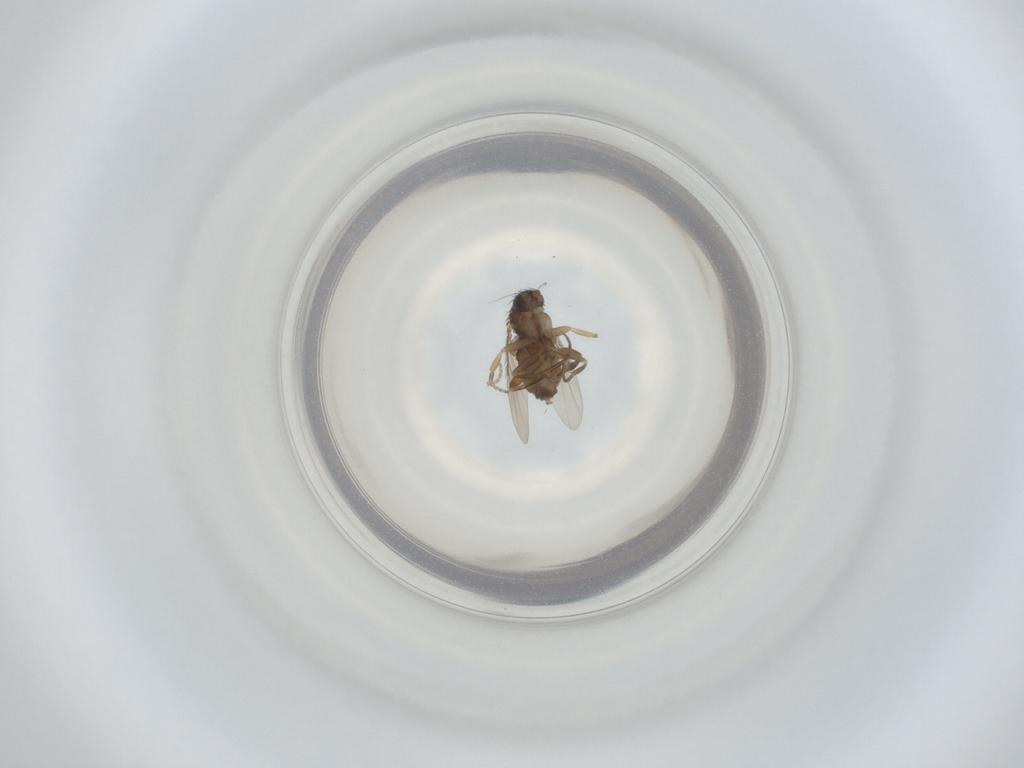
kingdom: Animalia
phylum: Arthropoda
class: Insecta
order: Diptera
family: Phoridae
